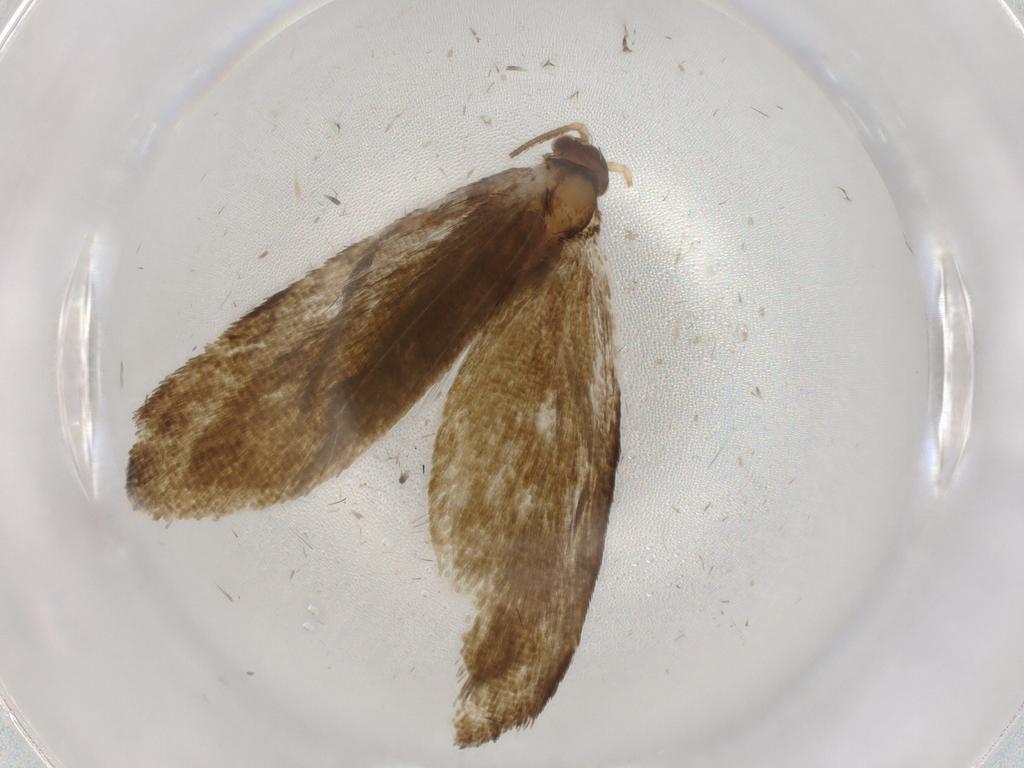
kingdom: Animalia
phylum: Arthropoda
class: Insecta
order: Lepidoptera
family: Tineidae
